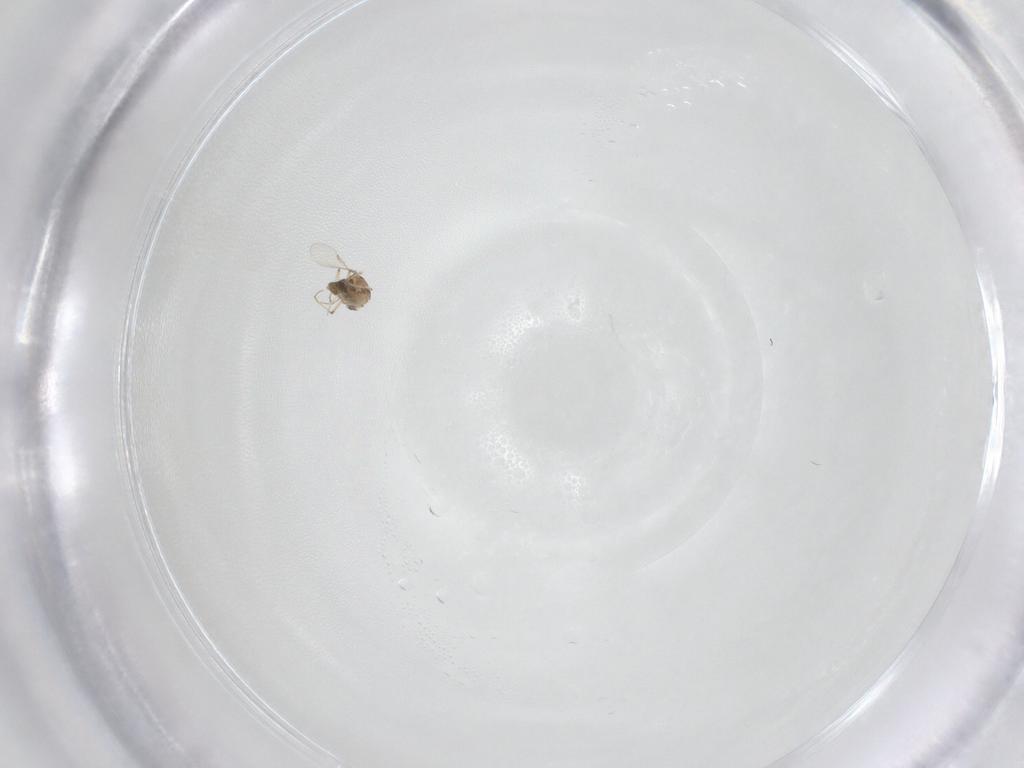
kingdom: Animalia
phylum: Arthropoda
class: Insecta
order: Diptera
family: Chironomidae
